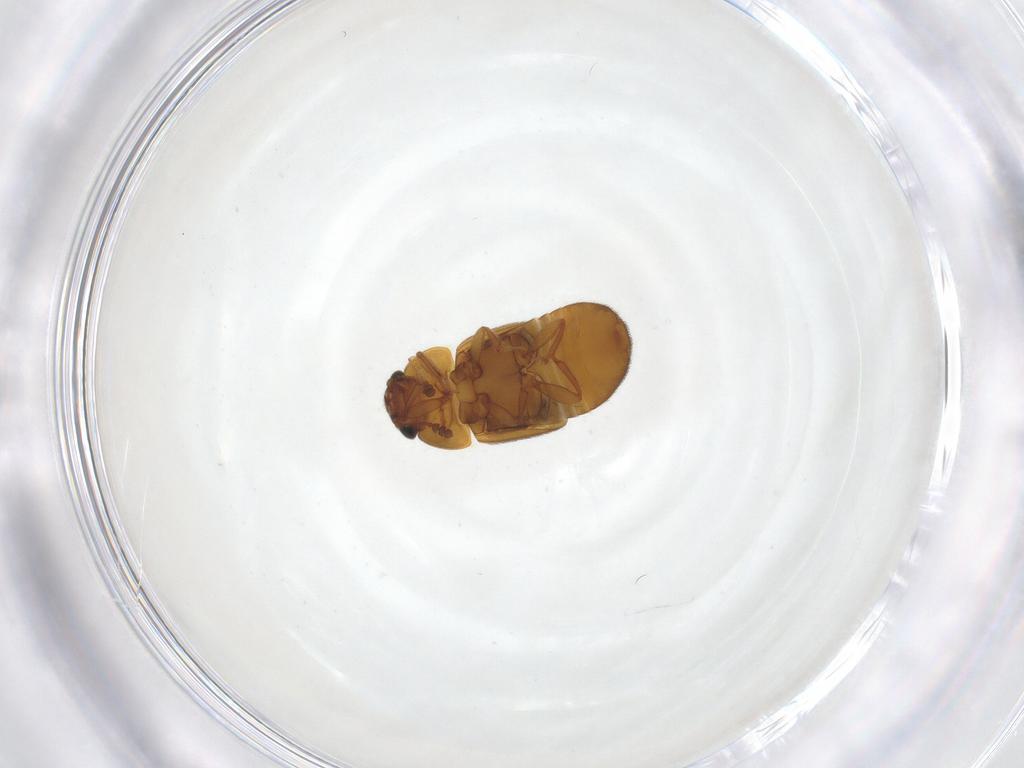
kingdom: Animalia
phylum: Arthropoda
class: Insecta
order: Coleoptera
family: Nitidulidae
